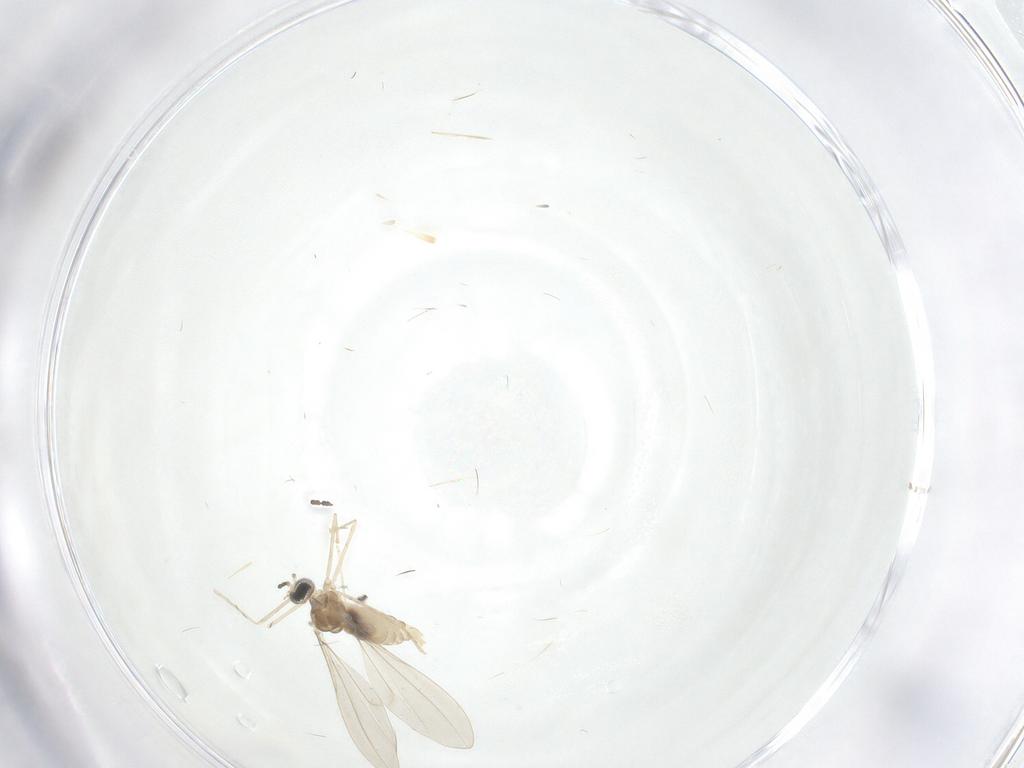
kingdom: Animalia
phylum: Arthropoda
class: Insecta
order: Diptera
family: Cecidomyiidae
